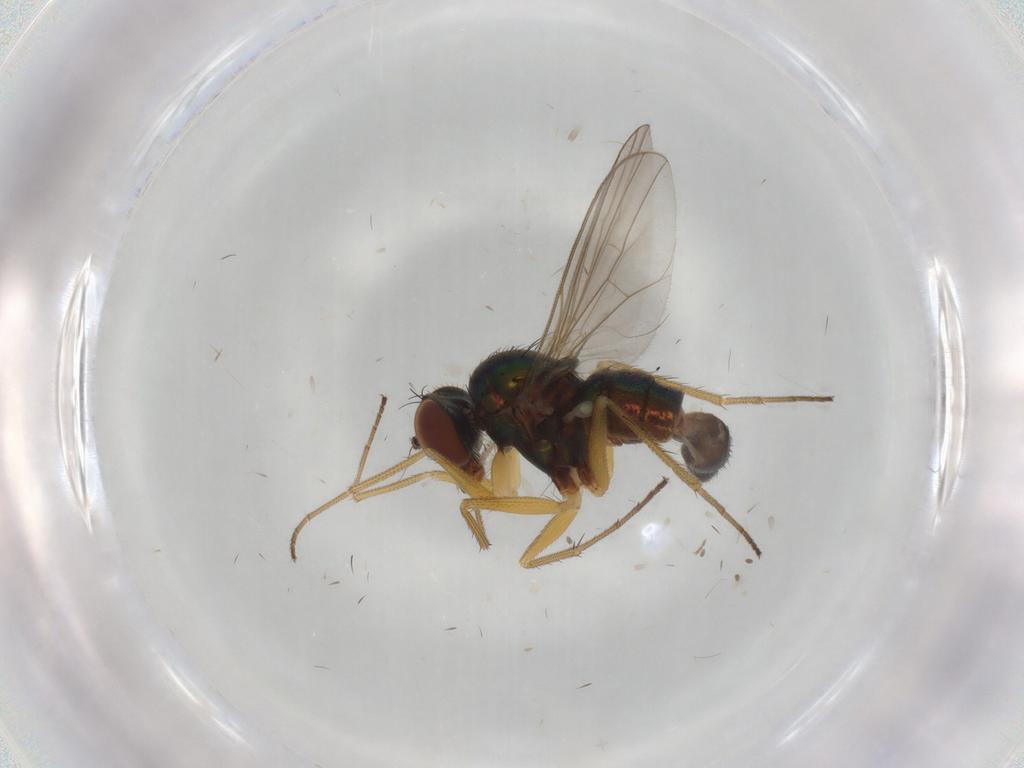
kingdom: Animalia
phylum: Arthropoda
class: Insecta
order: Diptera
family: Dolichopodidae
